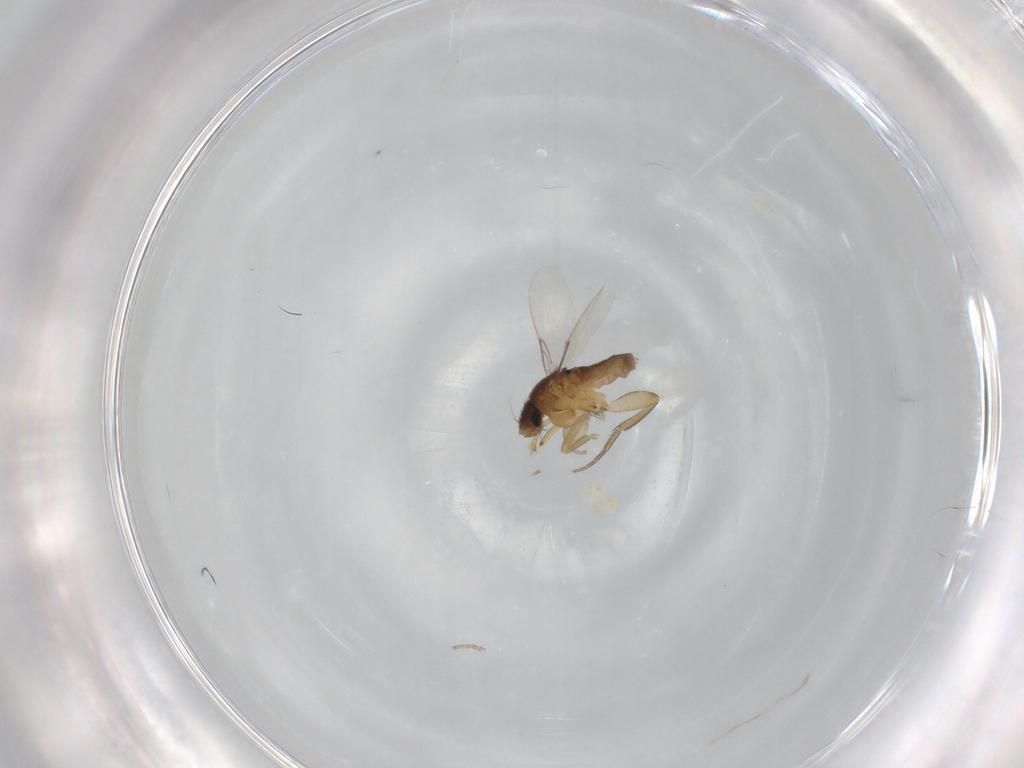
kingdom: Animalia
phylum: Arthropoda
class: Insecta
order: Diptera
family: Phoridae
